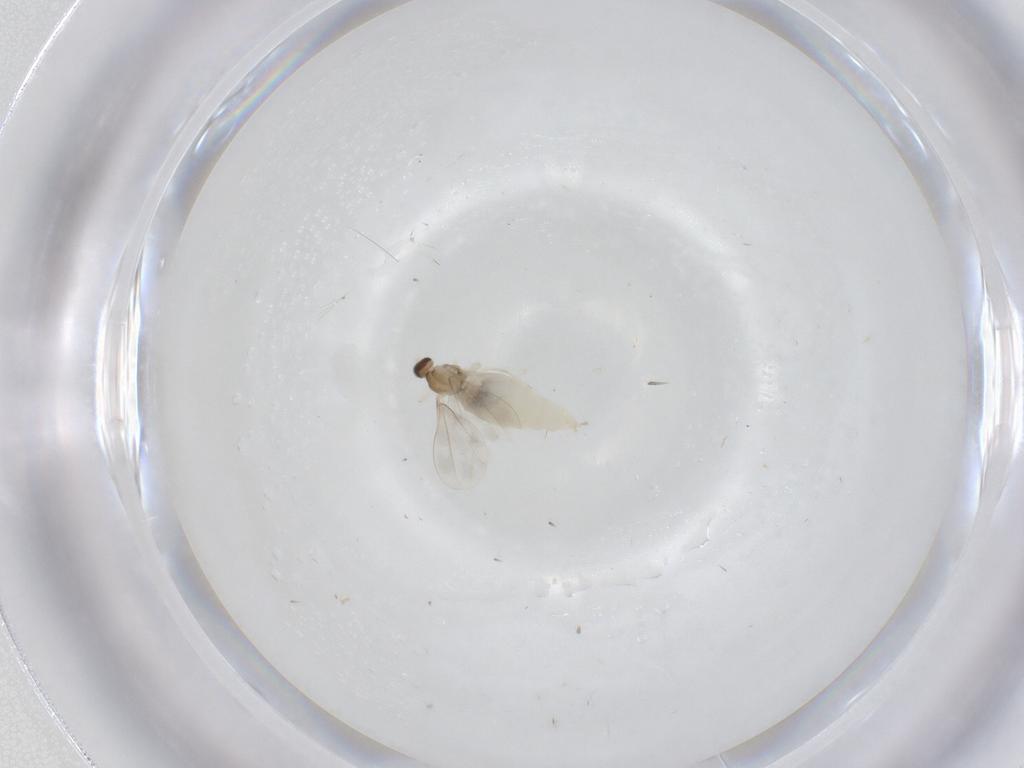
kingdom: Animalia
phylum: Arthropoda
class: Insecta
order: Diptera
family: Cecidomyiidae
